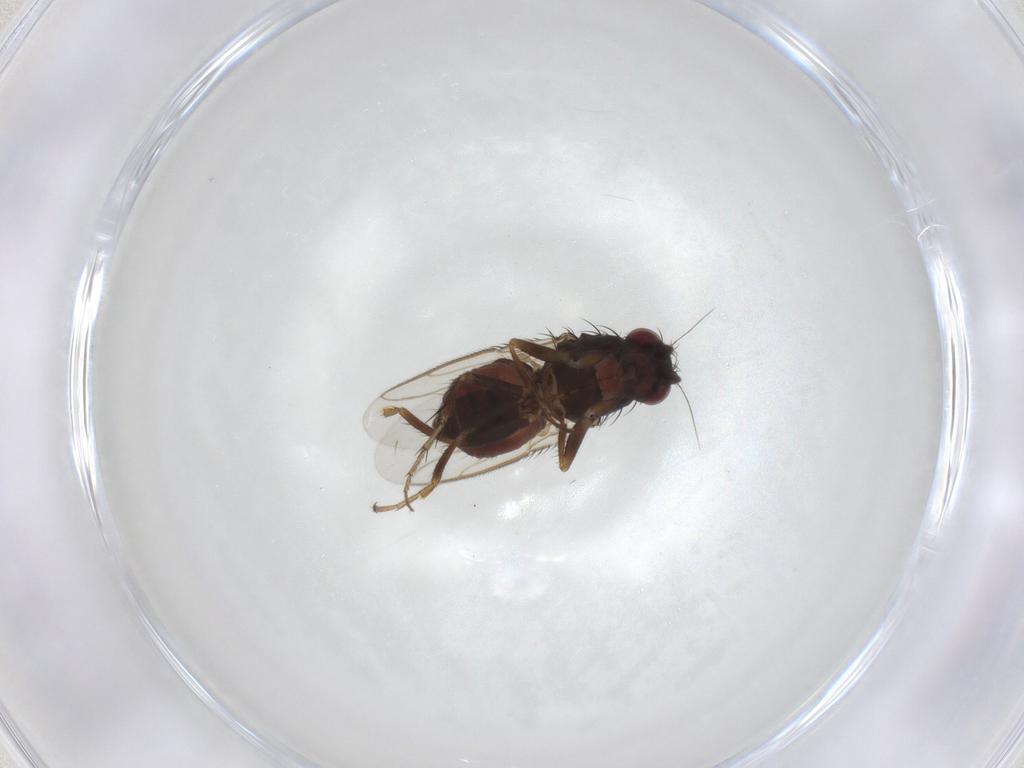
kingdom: Animalia
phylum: Arthropoda
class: Insecta
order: Diptera
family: Sphaeroceridae
